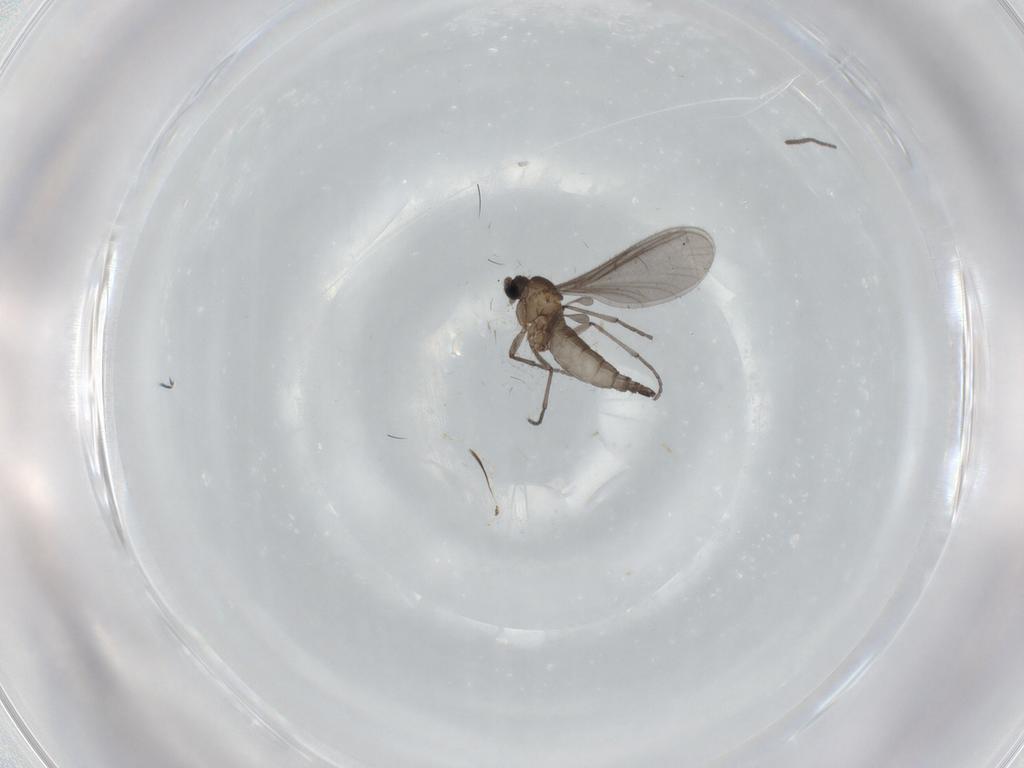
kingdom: Animalia
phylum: Arthropoda
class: Insecta
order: Diptera
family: Sciaridae
